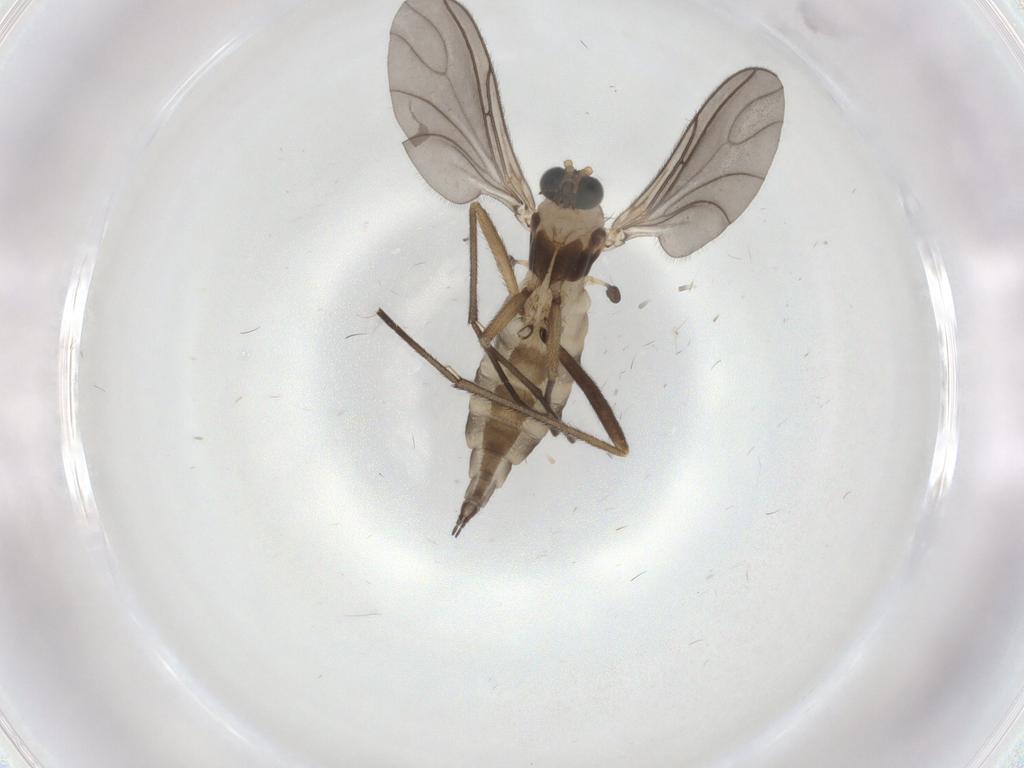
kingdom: Animalia
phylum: Arthropoda
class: Insecta
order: Diptera
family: Sciaridae
